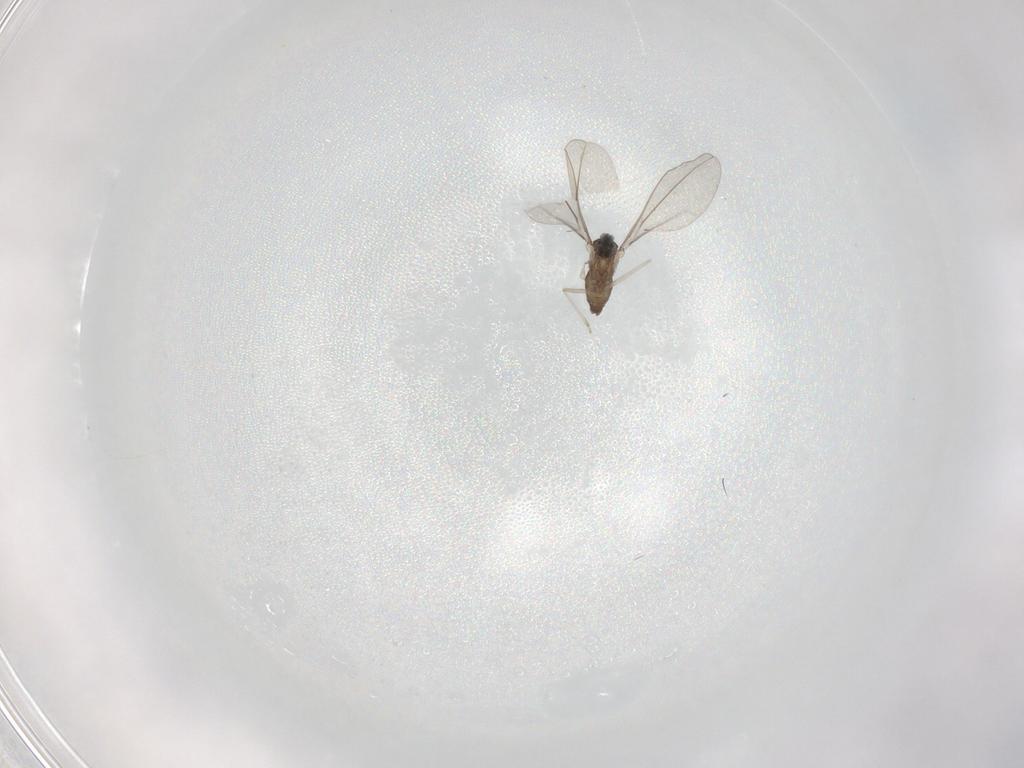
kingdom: Animalia
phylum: Arthropoda
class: Insecta
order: Diptera
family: Cecidomyiidae
